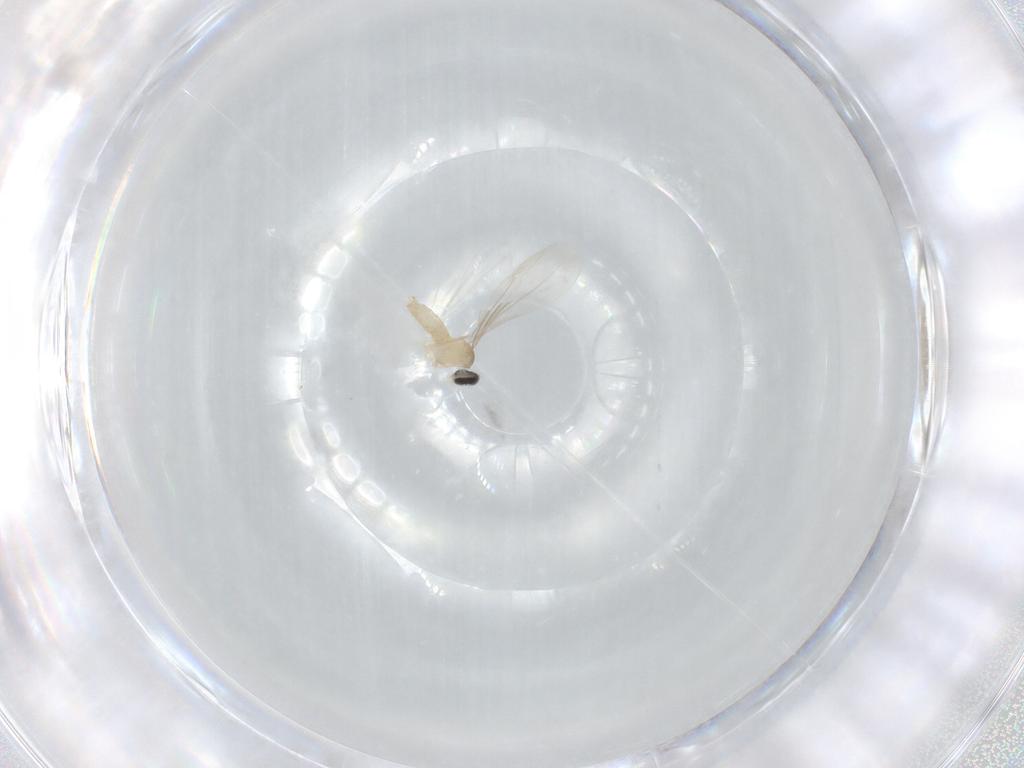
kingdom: Animalia
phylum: Arthropoda
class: Insecta
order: Diptera
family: Cecidomyiidae
